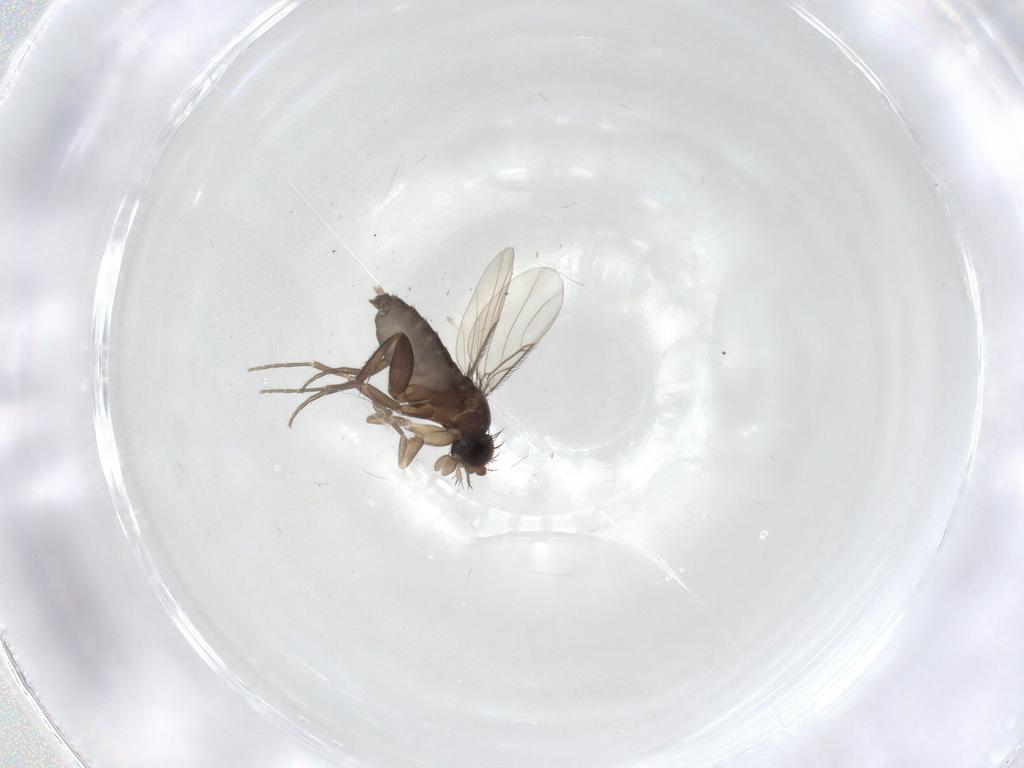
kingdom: Animalia
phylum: Arthropoda
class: Insecta
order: Diptera
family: Phoridae
